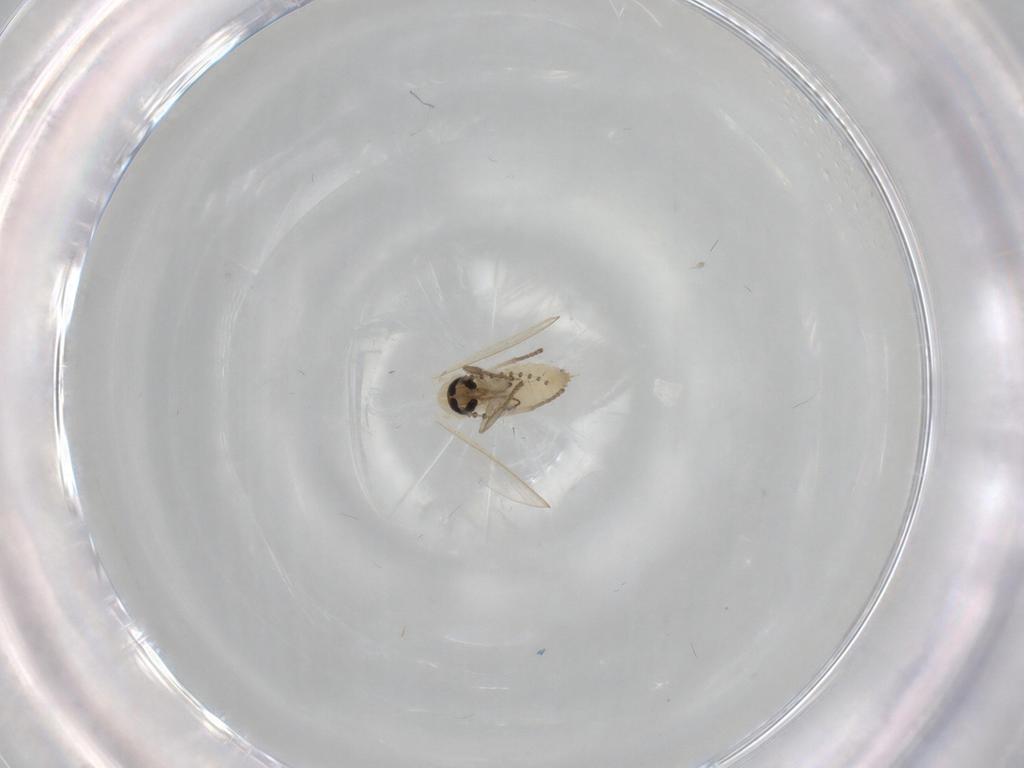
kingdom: Animalia
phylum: Arthropoda
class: Insecta
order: Diptera
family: Psychodidae
